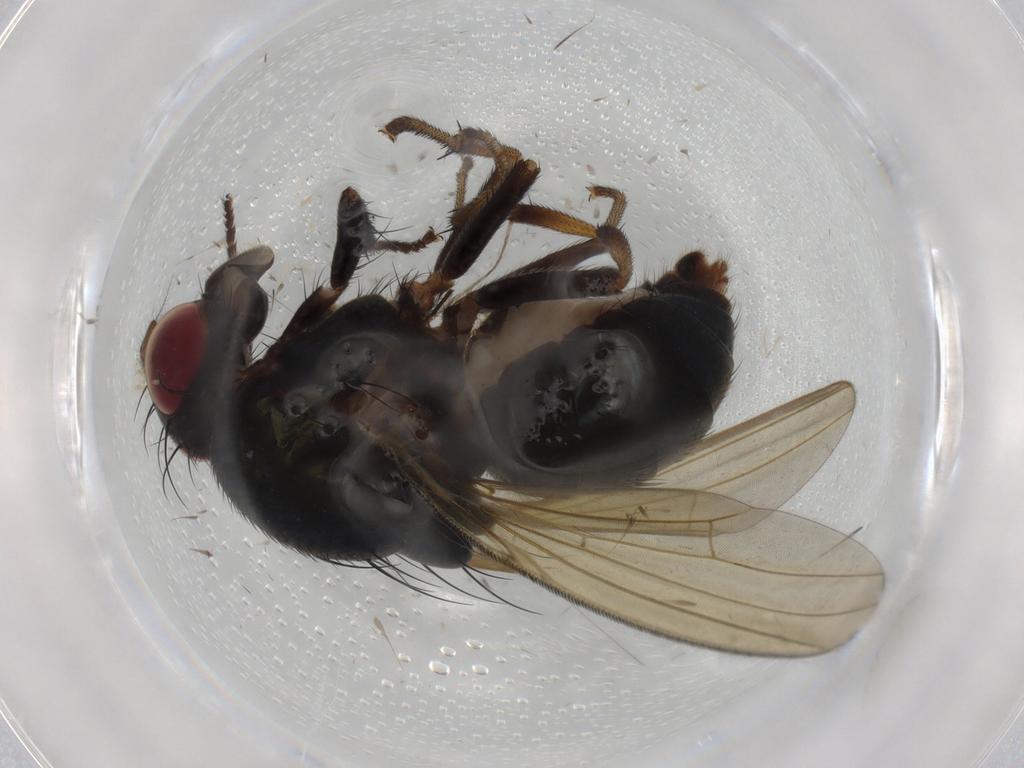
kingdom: Animalia
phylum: Arthropoda
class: Insecta
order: Diptera
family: Lauxaniidae
